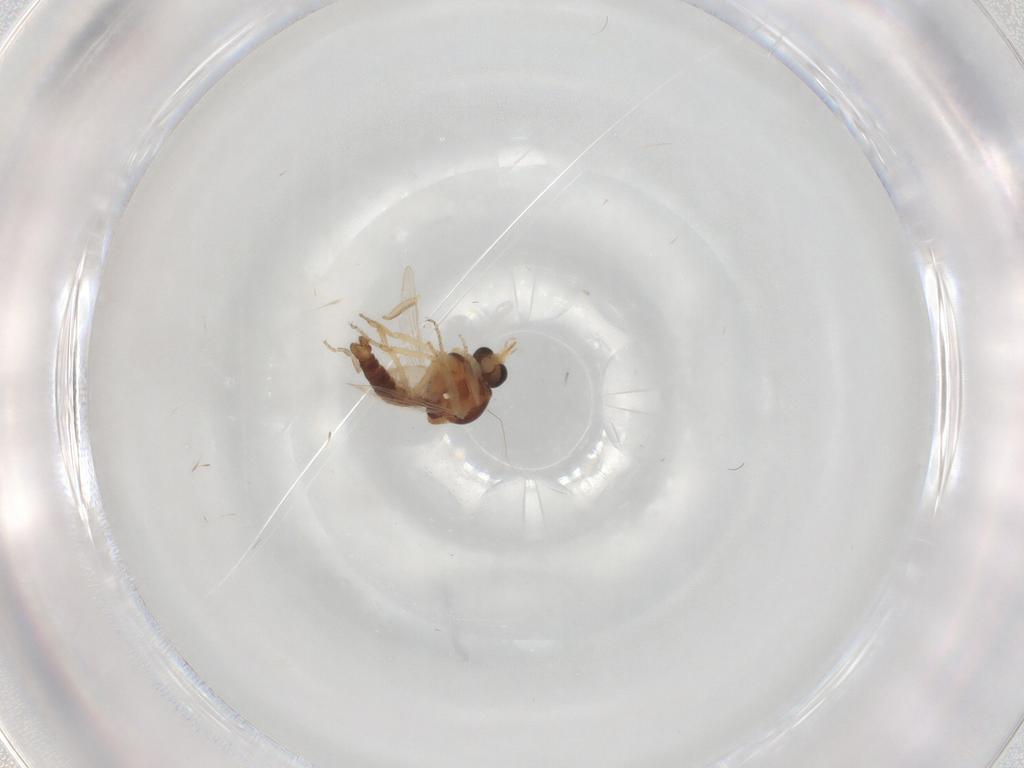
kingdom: Animalia
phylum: Arthropoda
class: Insecta
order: Diptera
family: Ceratopogonidae
